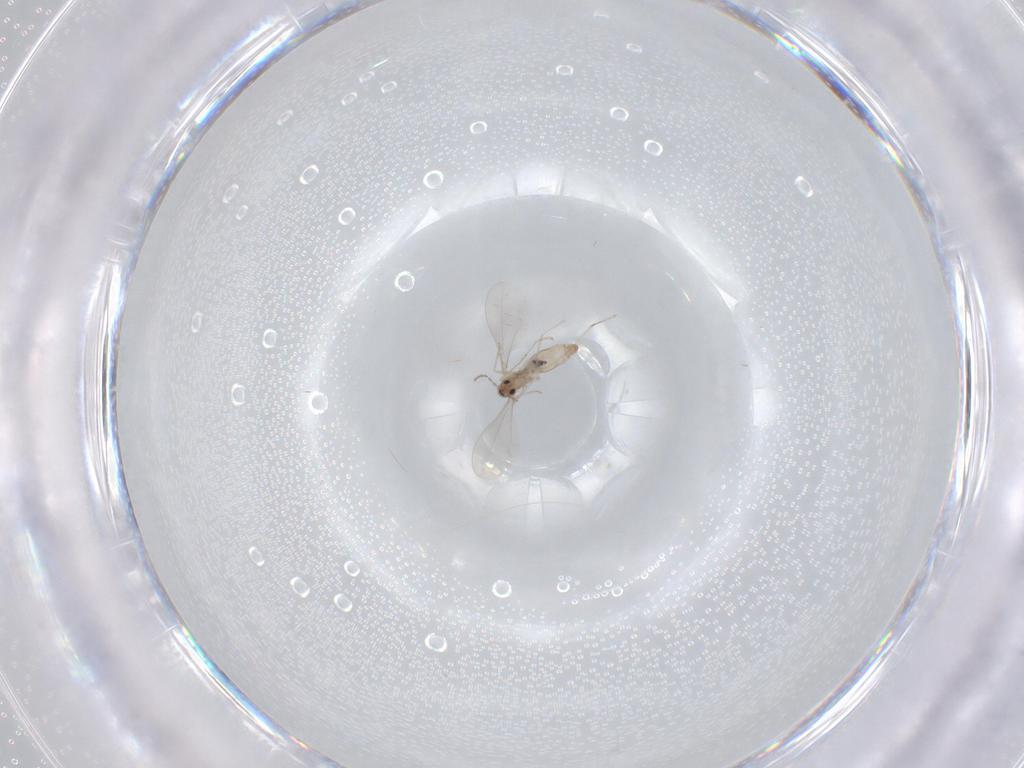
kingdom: Animalia
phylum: Arthropoda
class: Insecta
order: Diptera
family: Cecidomyiidae
